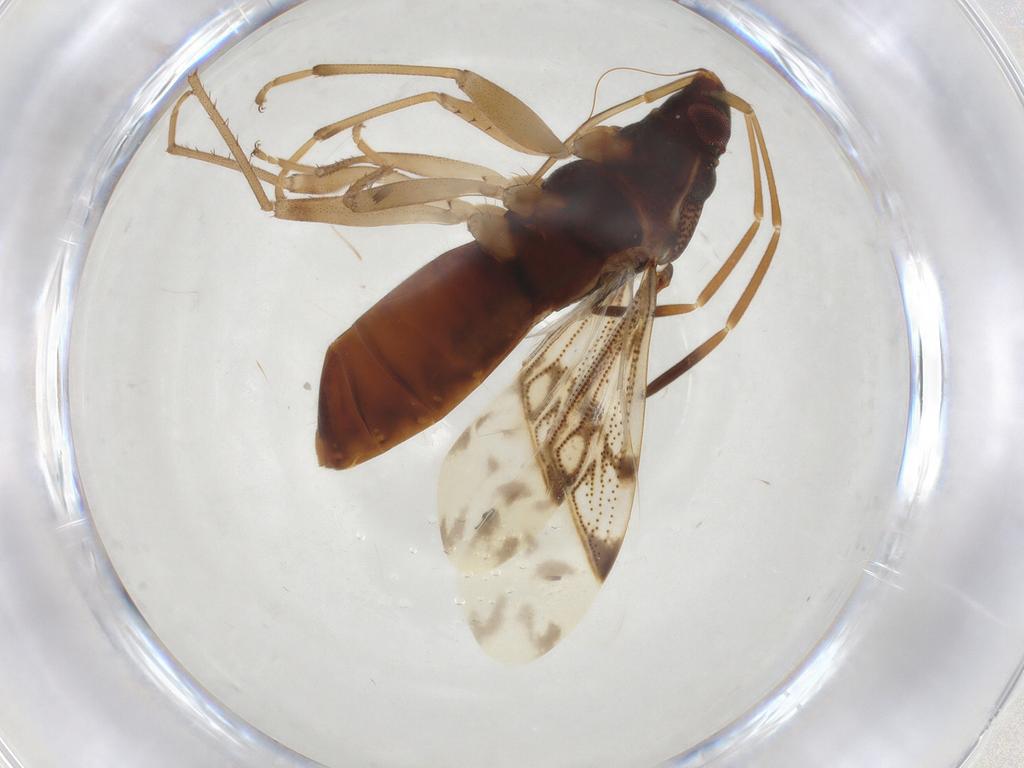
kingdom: Animalia
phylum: Arthropoda
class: Insecta
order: Hemiptera
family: Rhyparochromidae
